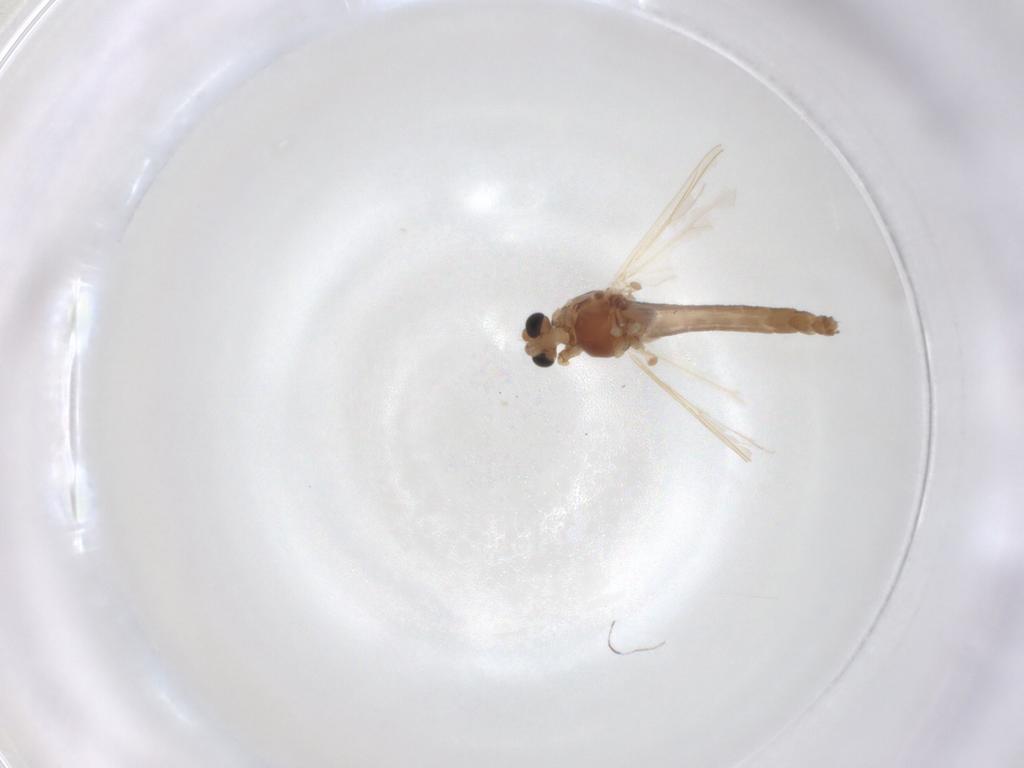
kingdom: Animalia
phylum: Arthropoda
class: Insecta
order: Diptera
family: Chironomidae
